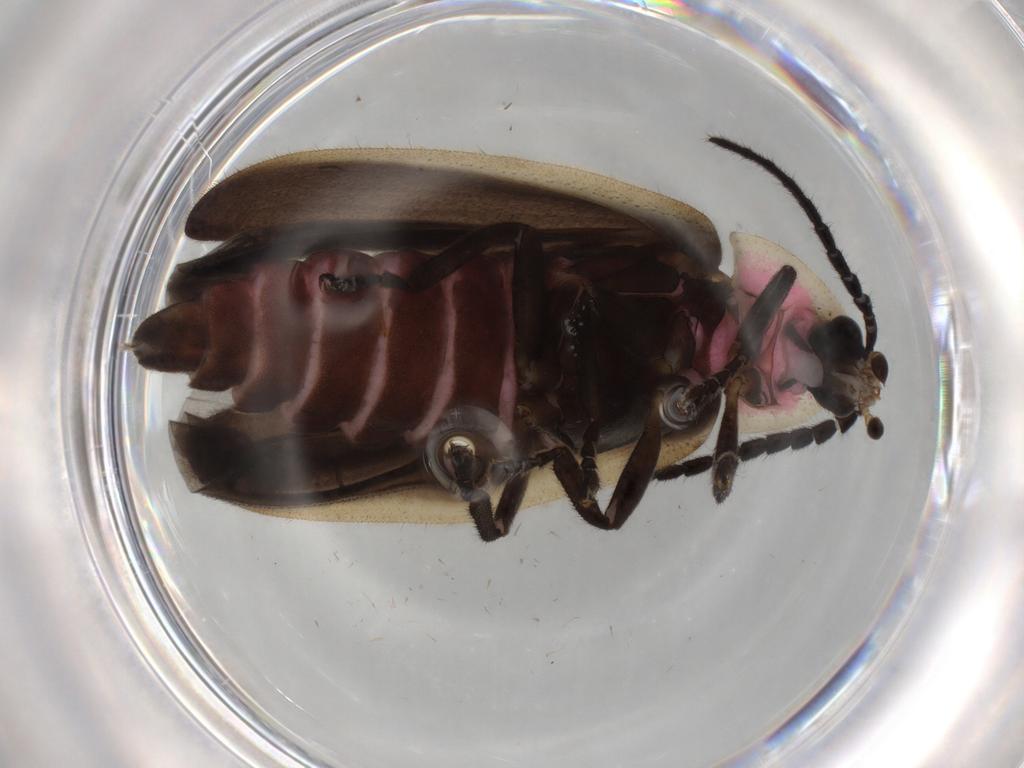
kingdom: Animalia
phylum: Arthropoda
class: Insecta
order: Coleoptera
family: Lampyridae
